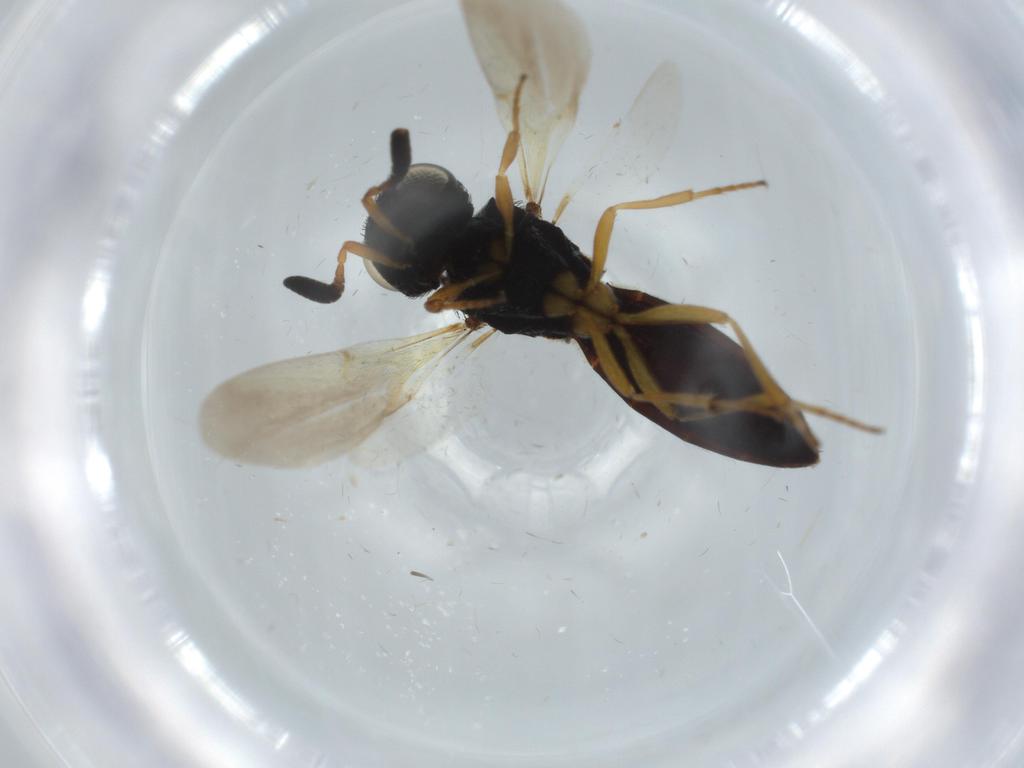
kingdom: Animalia
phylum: Arthropoda
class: Insecta
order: Hymenoptera
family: Scelionidae
